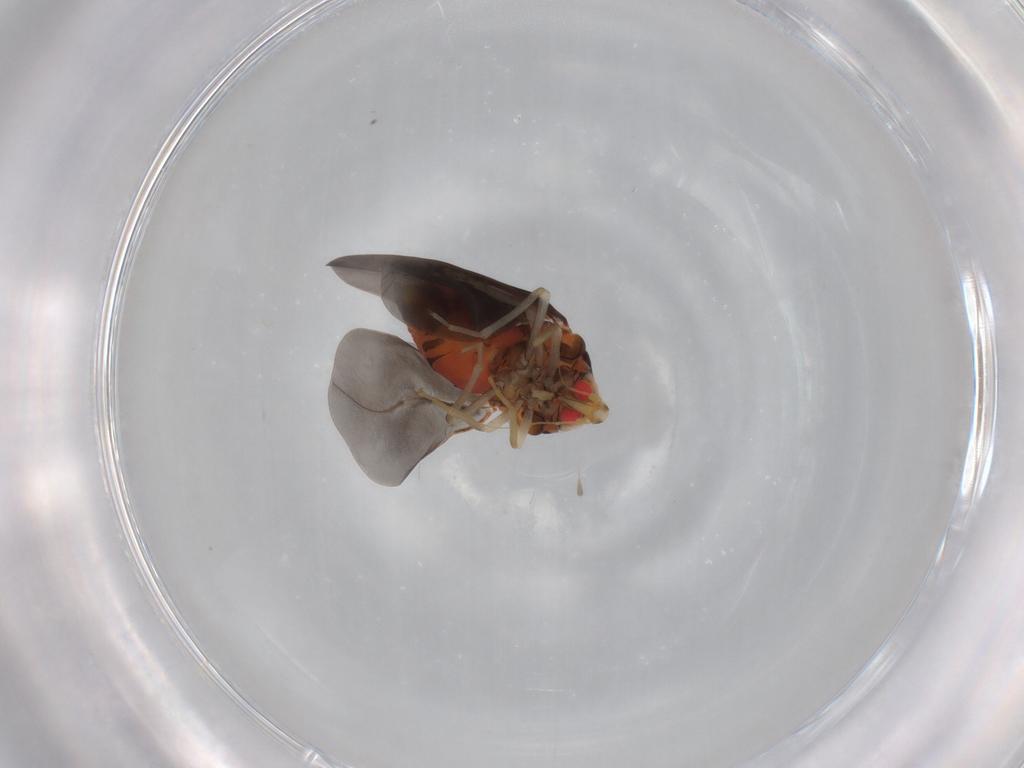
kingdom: Animalia
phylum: Arthropoda
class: Insecta
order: Hemiptera
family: Aleyrodidae
